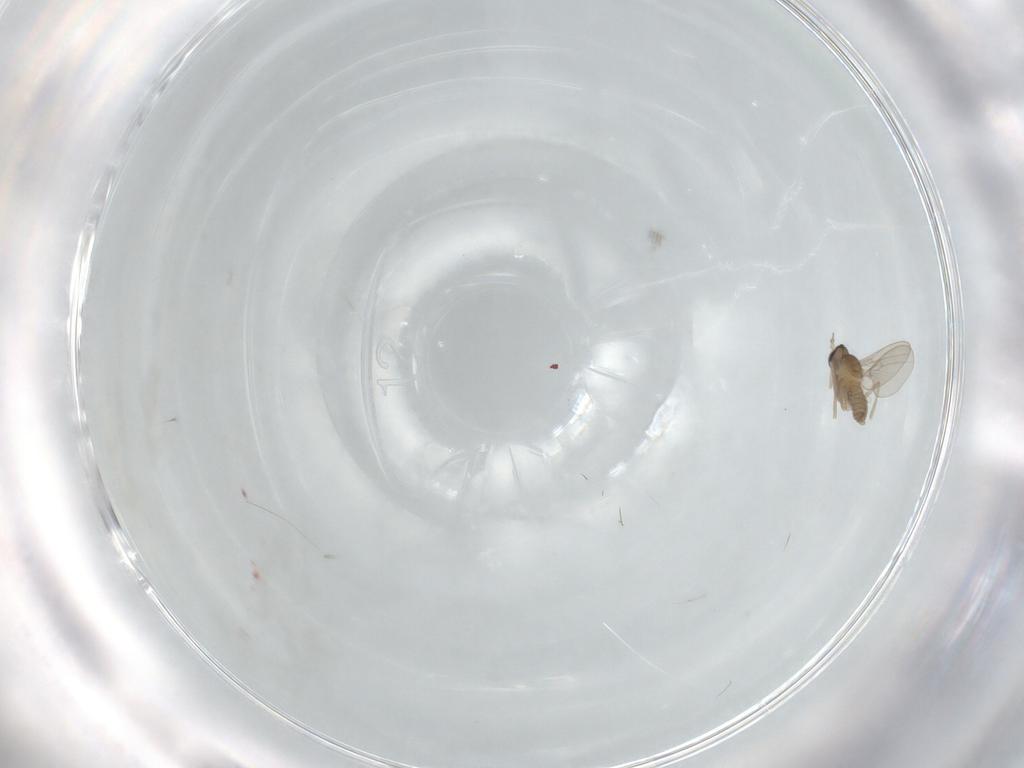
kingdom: Animalia
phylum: Arthropoda
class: Insecta
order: Diptera
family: Cecidomyiidae
